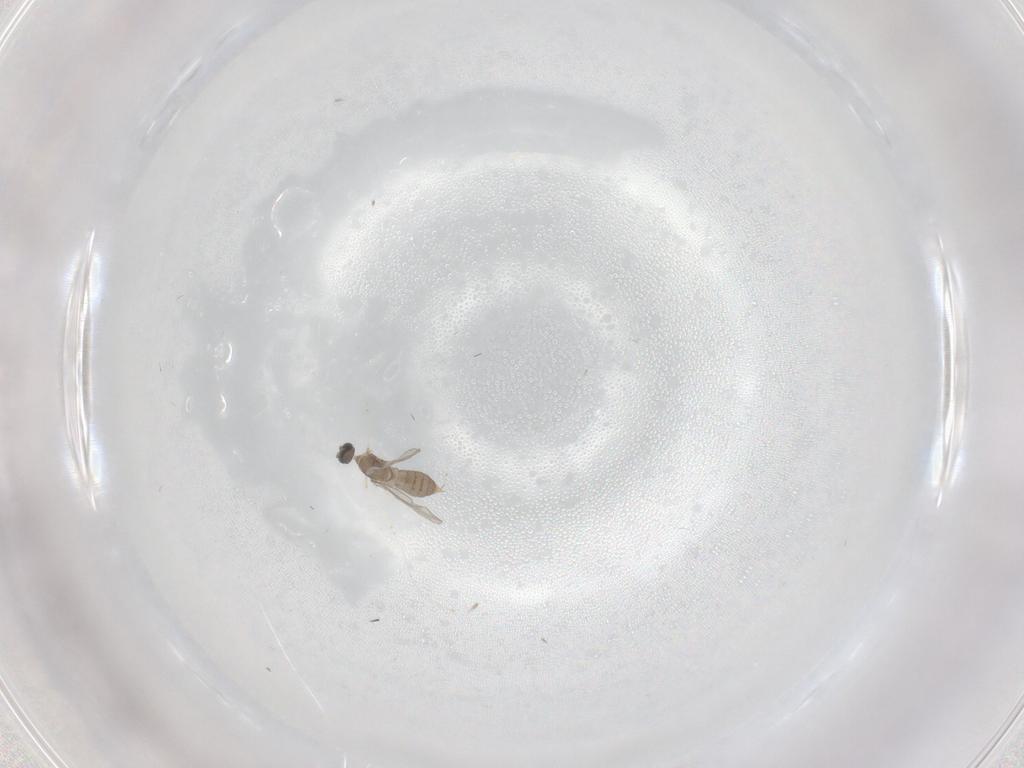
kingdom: Animalia
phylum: Arthropoda
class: Insecta
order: Diptera
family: Cecidomyiidae
